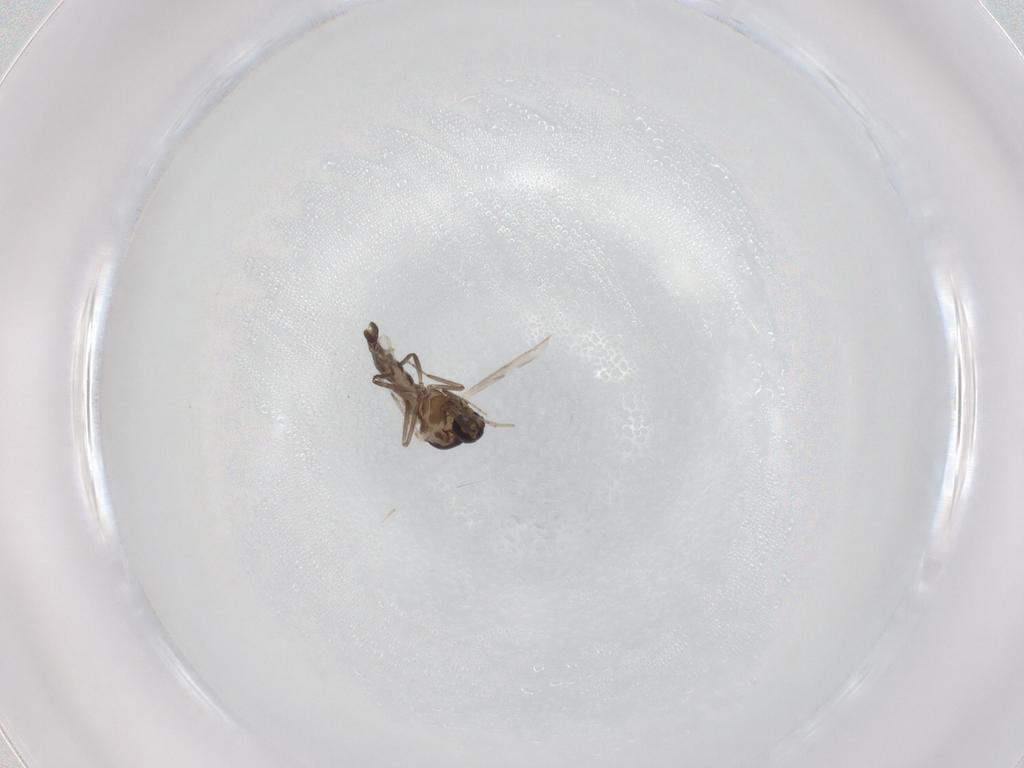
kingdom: Animalia
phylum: Arthropoda
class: Insecta
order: Diptera
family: Ceratopogonidae
